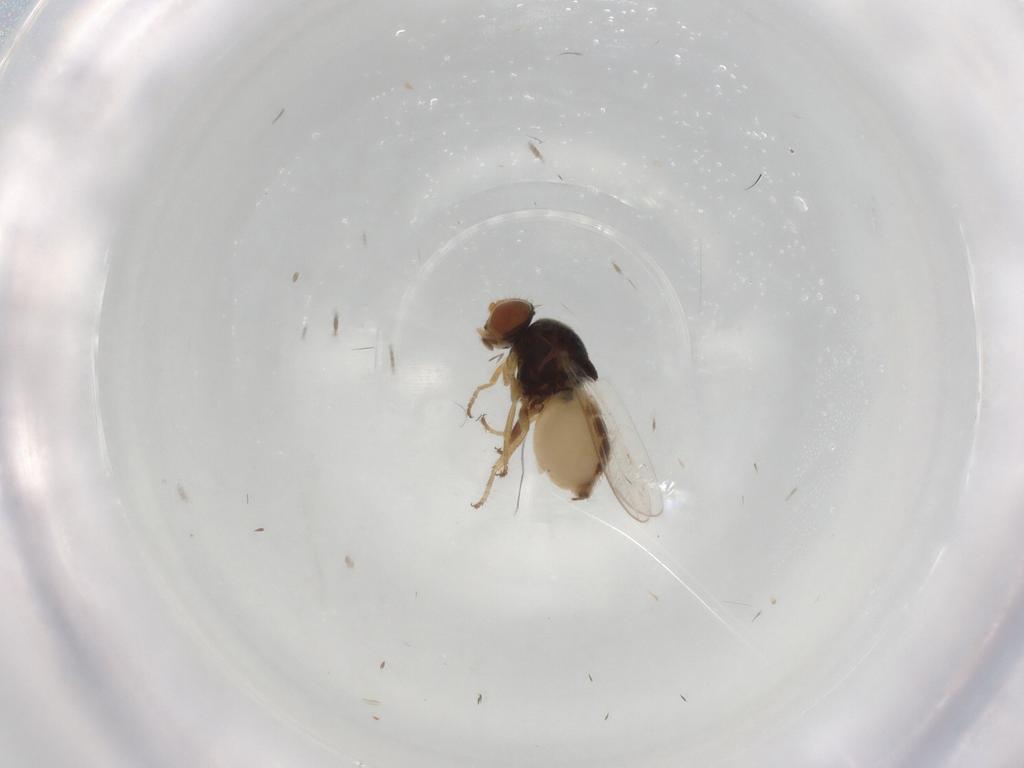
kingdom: Animalia
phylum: Arthropoda
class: Insecta
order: Diptera
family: Chloropidae
